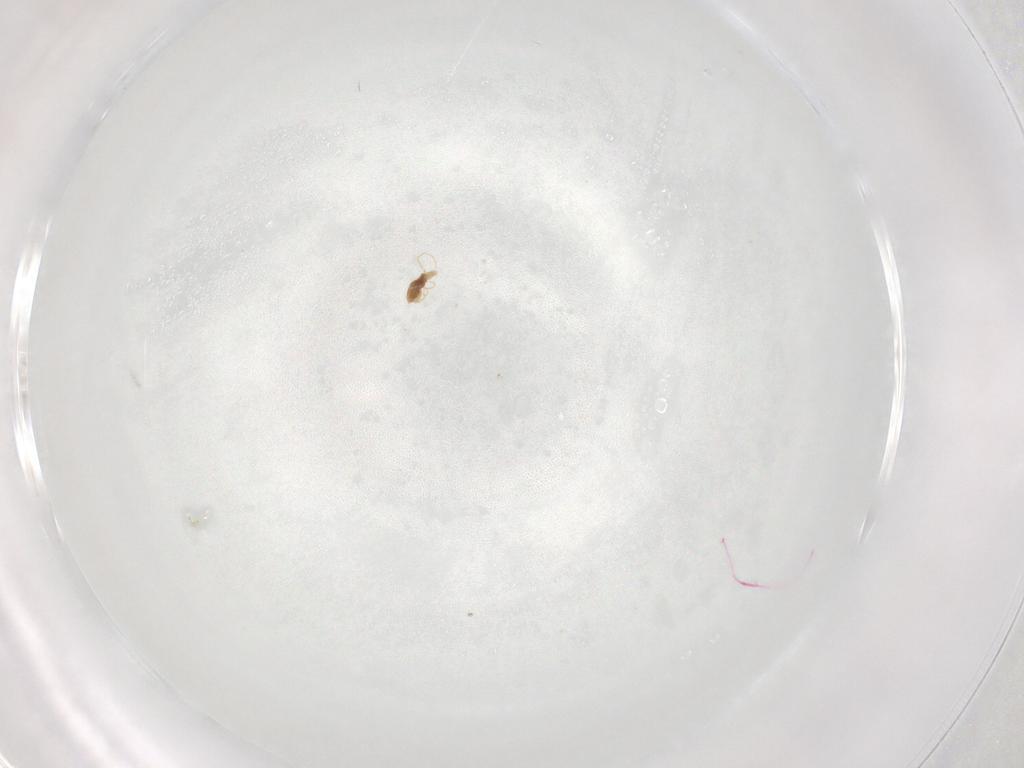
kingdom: Animalia
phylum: Arthropoda
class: Arachnida
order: Trombidiformes
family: Eupodidae
